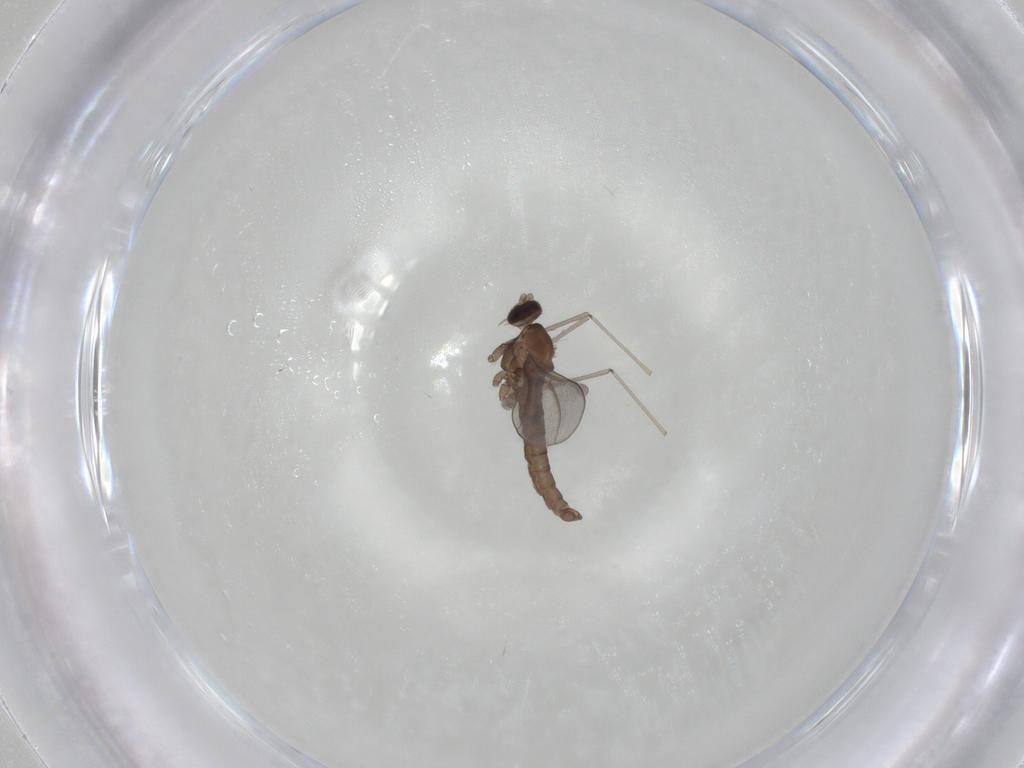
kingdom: Animalia
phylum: Arthropoda
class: Insecta
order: Diptera
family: Cecidomyiidae
